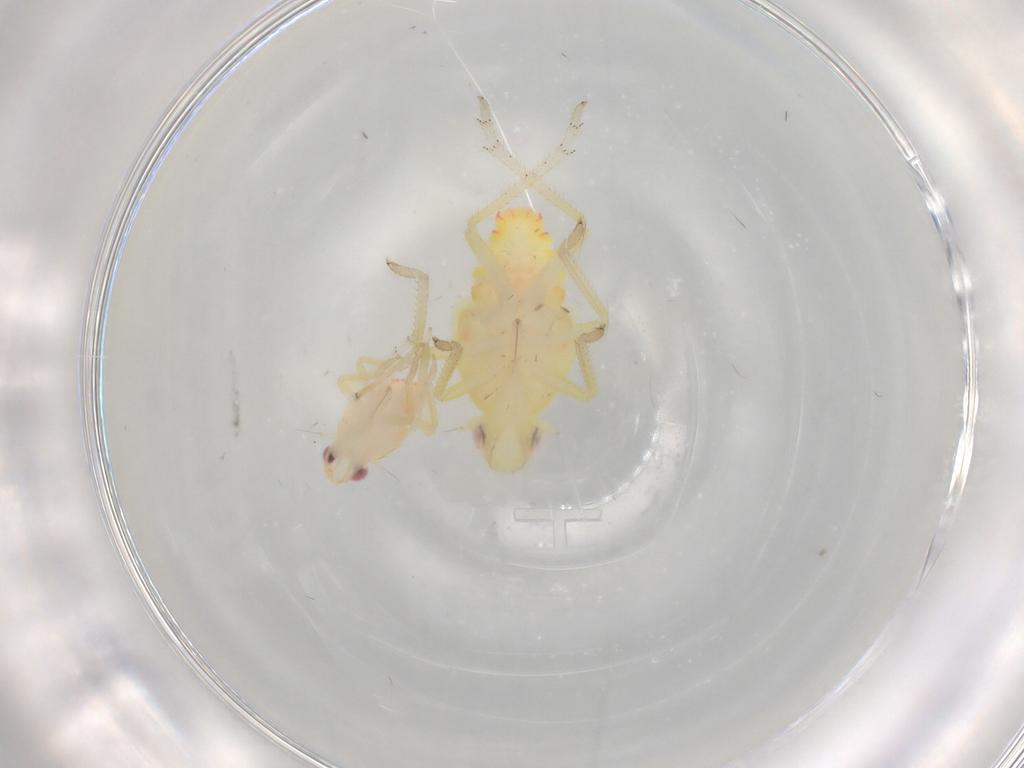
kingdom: Animalia
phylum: Arthropoda
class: Insecta
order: Hemiptera
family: Tropiduchidae
